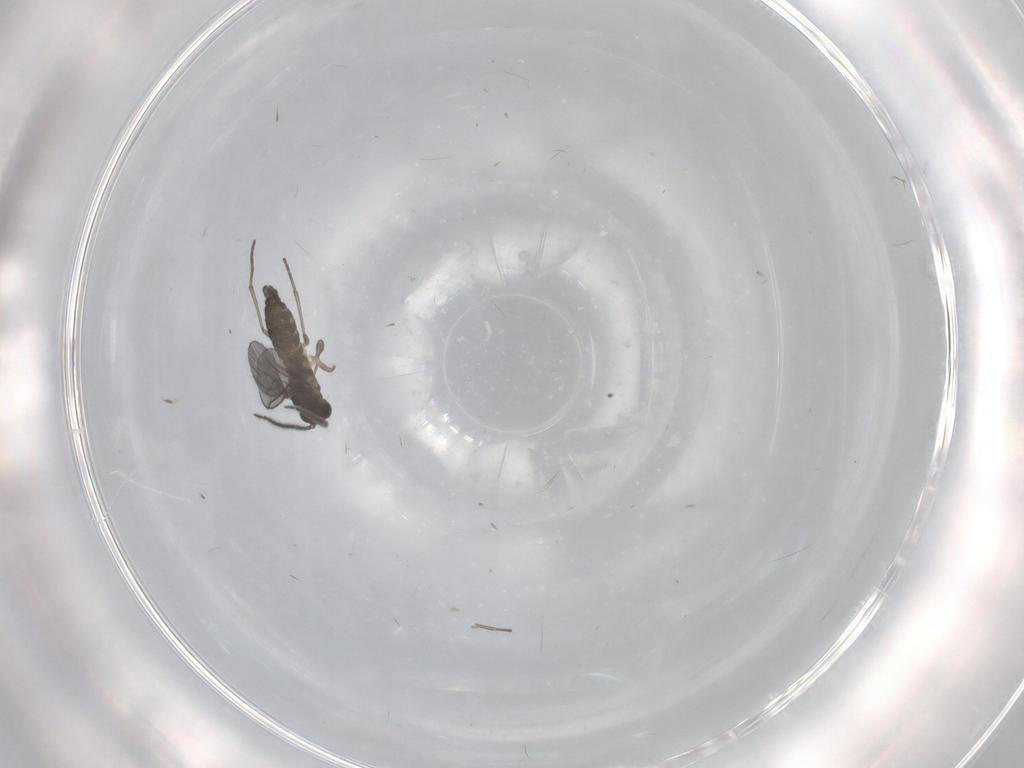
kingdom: Animalia
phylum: Arthropoda
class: Insecta
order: Diptera
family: Sciaridae
